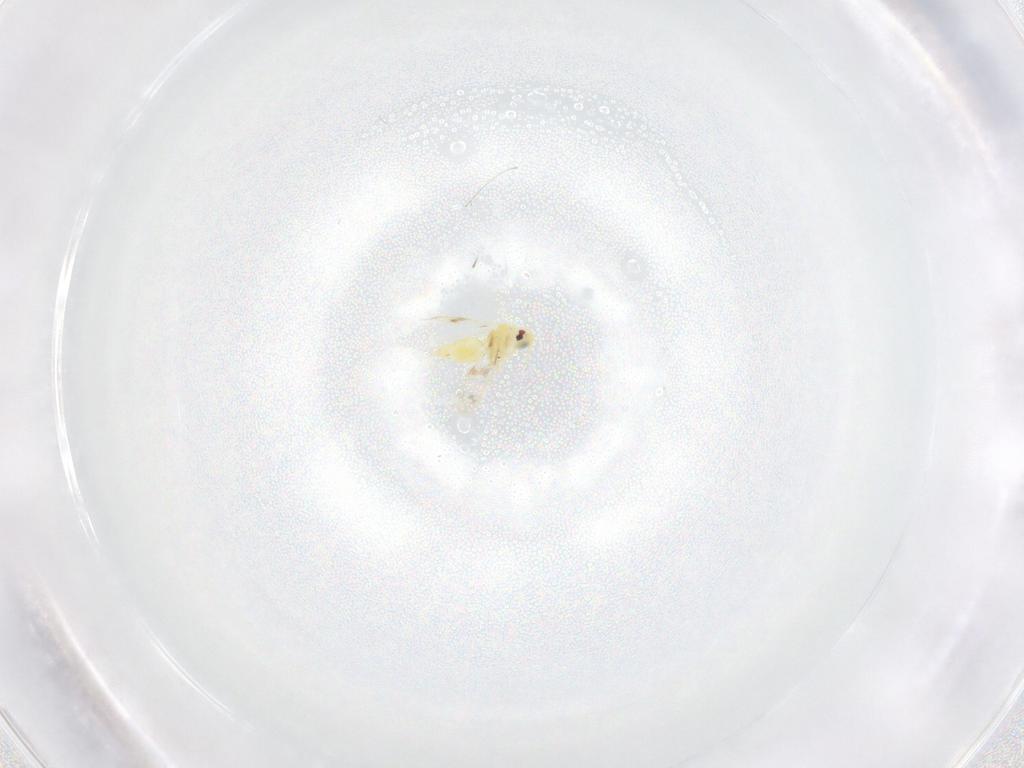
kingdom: Animalia
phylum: Arthropoda
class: Insecta
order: Hemiptera
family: Aleyrodidae
